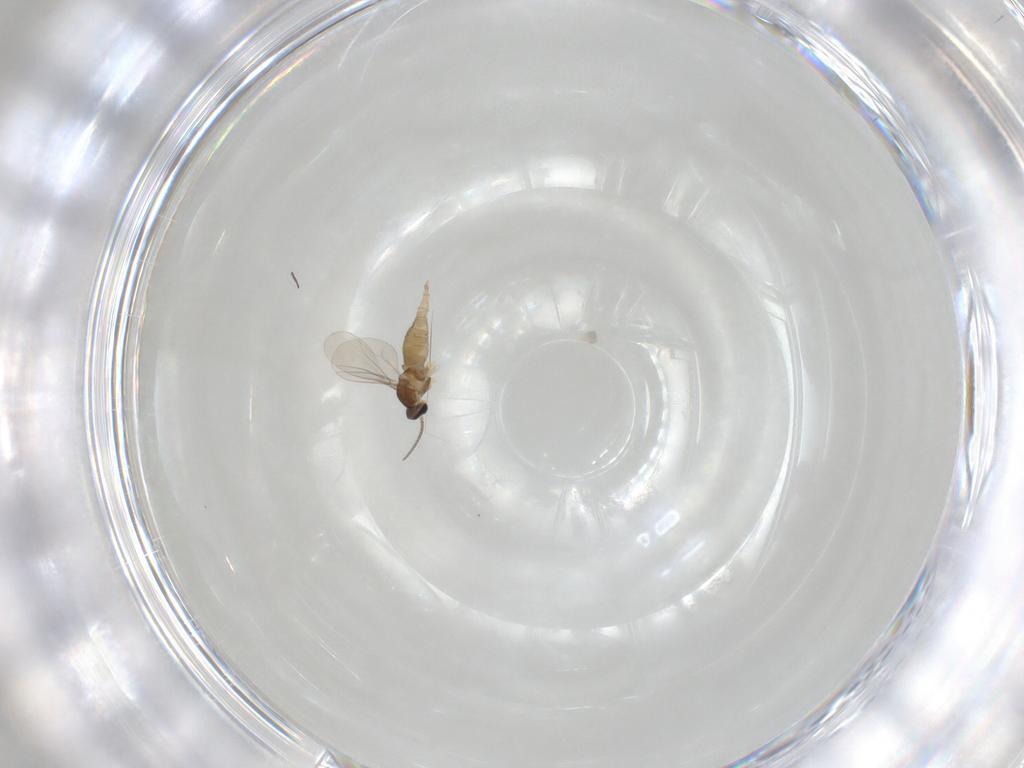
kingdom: Animalia
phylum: Arthropoda
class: Insecta
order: Diptera
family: Cecidomyiidae
